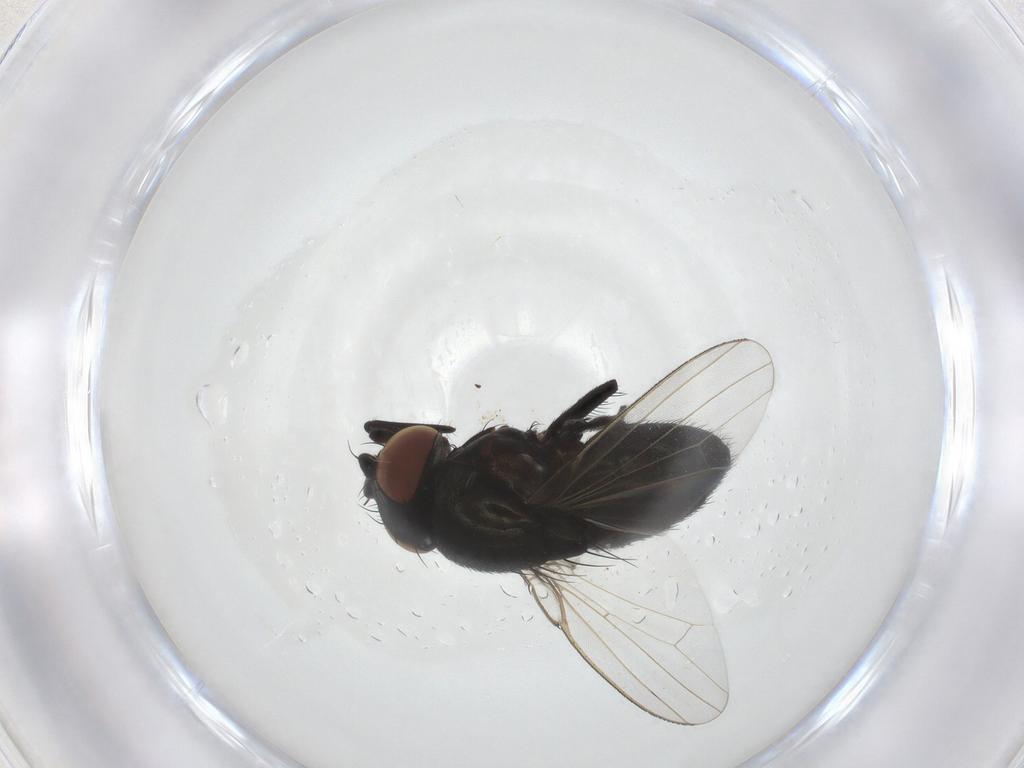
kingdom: Animalia
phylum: Arthropoda
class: Insecta
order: Diptera
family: Milichiidae
